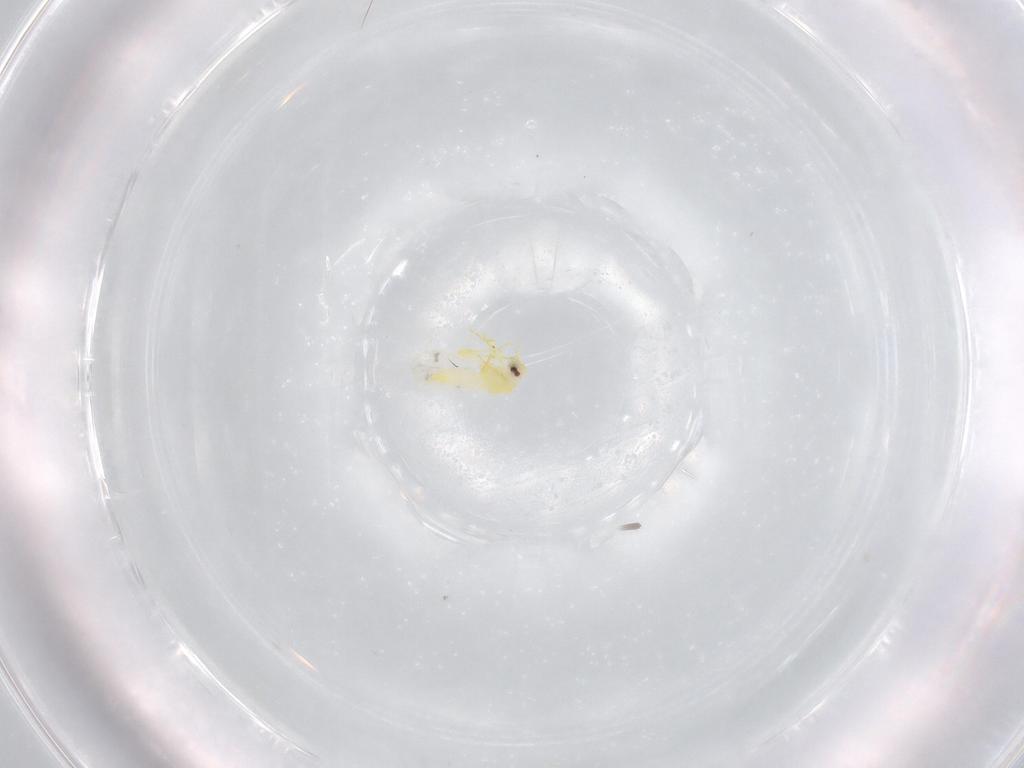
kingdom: Animalia
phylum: Arthropoda
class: Insecta
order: Hemiptera
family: Aleyrodidae
